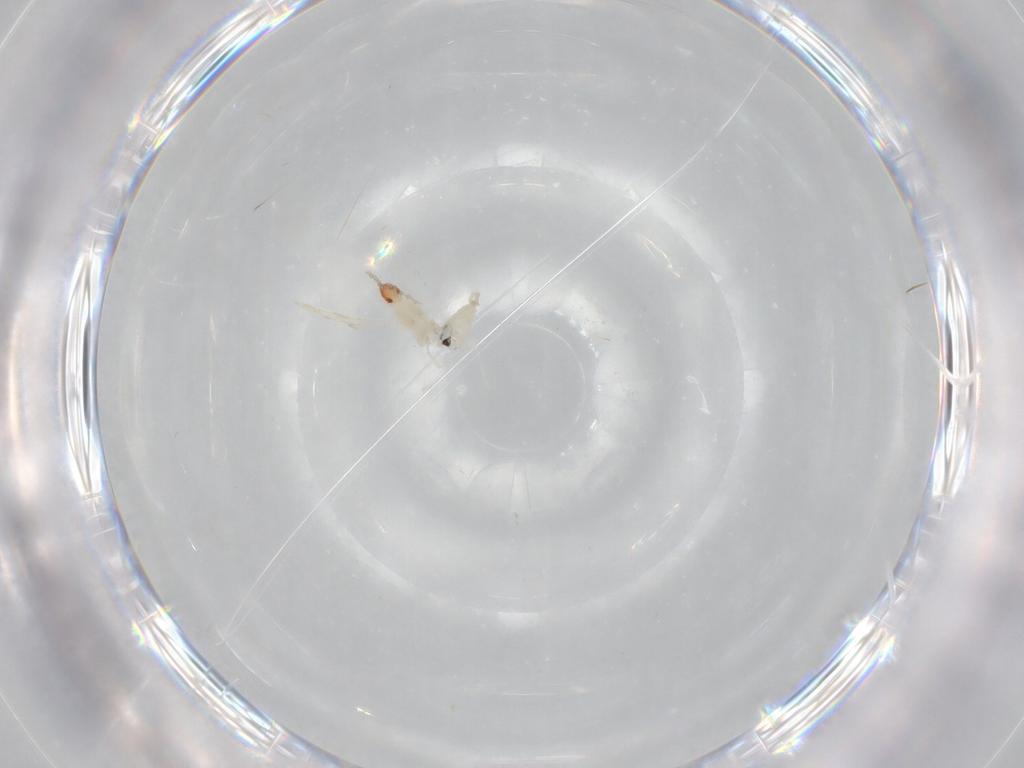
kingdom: Animalia
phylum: Arthropoda
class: Insecta
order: Diptera
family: Cecidomyiidae
